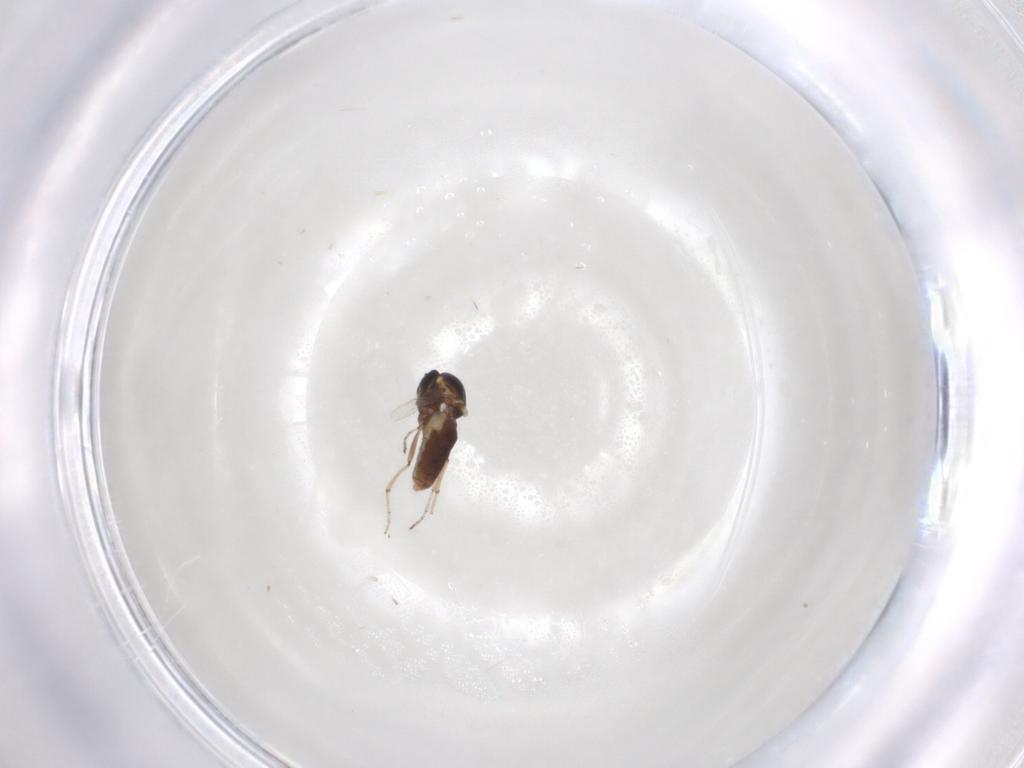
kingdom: Animalia
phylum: Arthropoda
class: Insecta
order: Diptera
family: Ceratopogonidae
